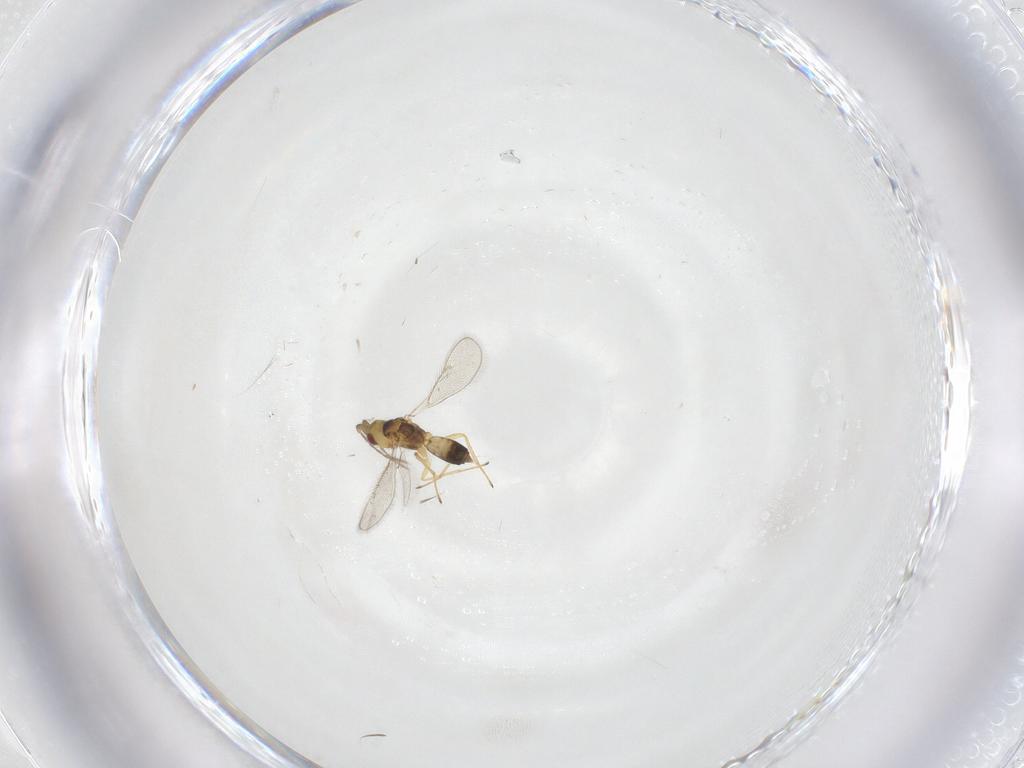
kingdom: Animalia
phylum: Arthropoda
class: Insecta
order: Hymenoptera
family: Eulophidae
